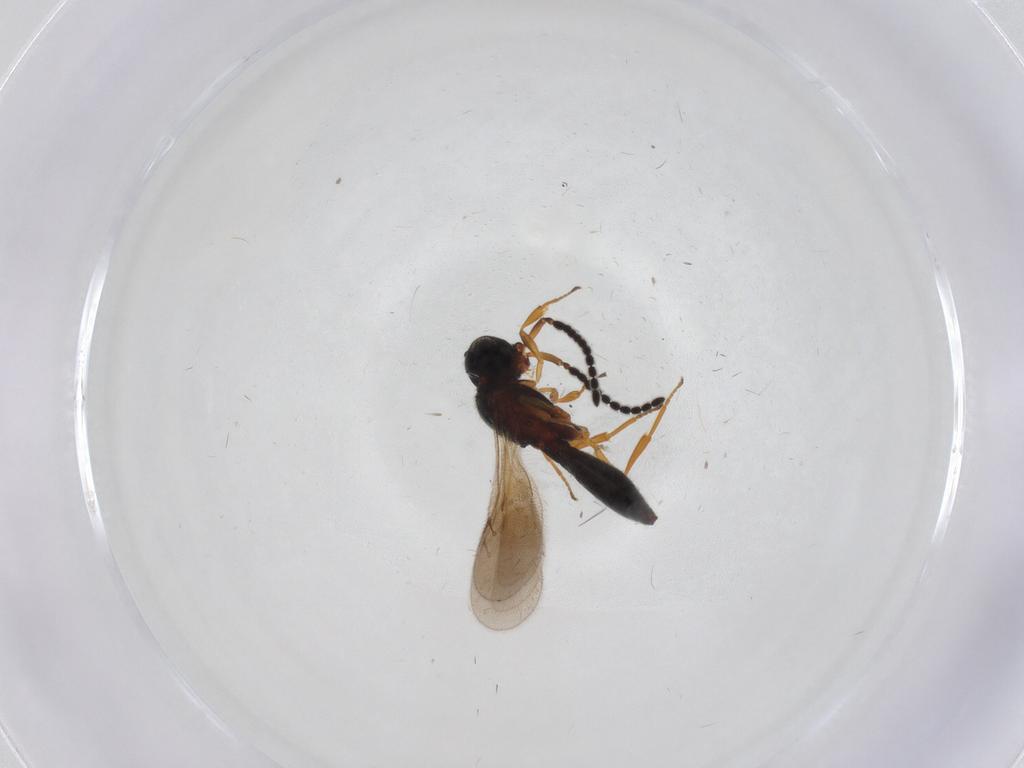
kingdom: Animalia
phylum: Arthropoda
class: Insecta
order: Hymenoptera
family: Scelionidae
